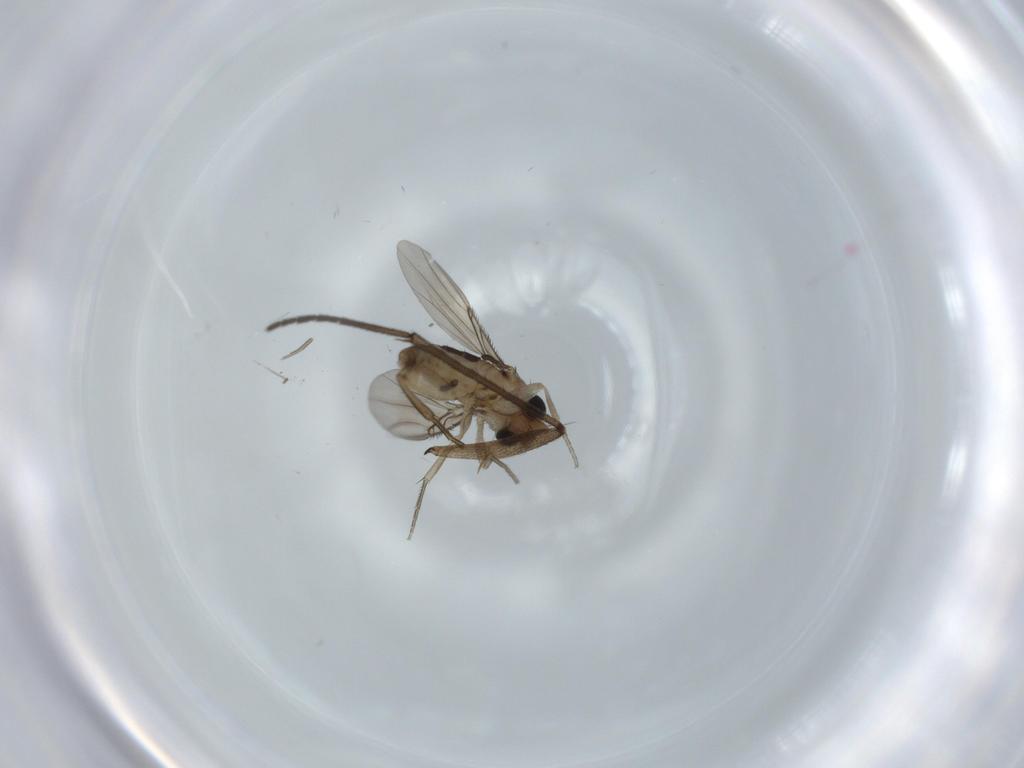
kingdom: Animalia
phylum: Arthropoda
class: Insecta
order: Diptera
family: Phoridae
